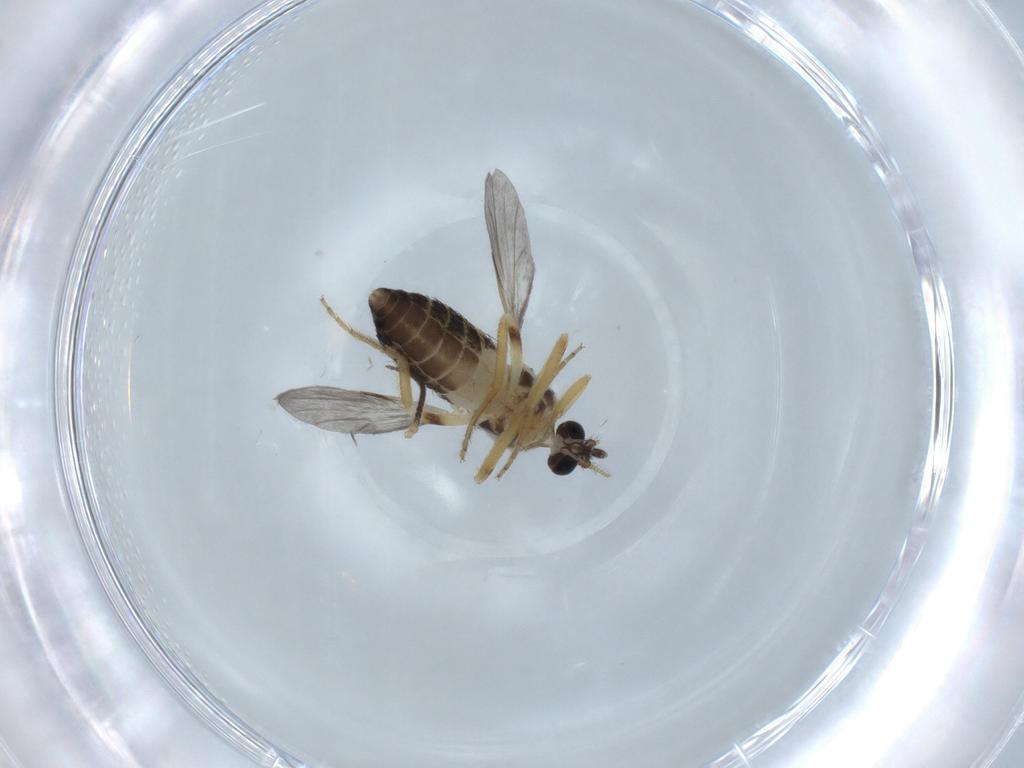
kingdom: Animalia
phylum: Arthropoda
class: Insecta
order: Diptera
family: Ceratopogonidae
